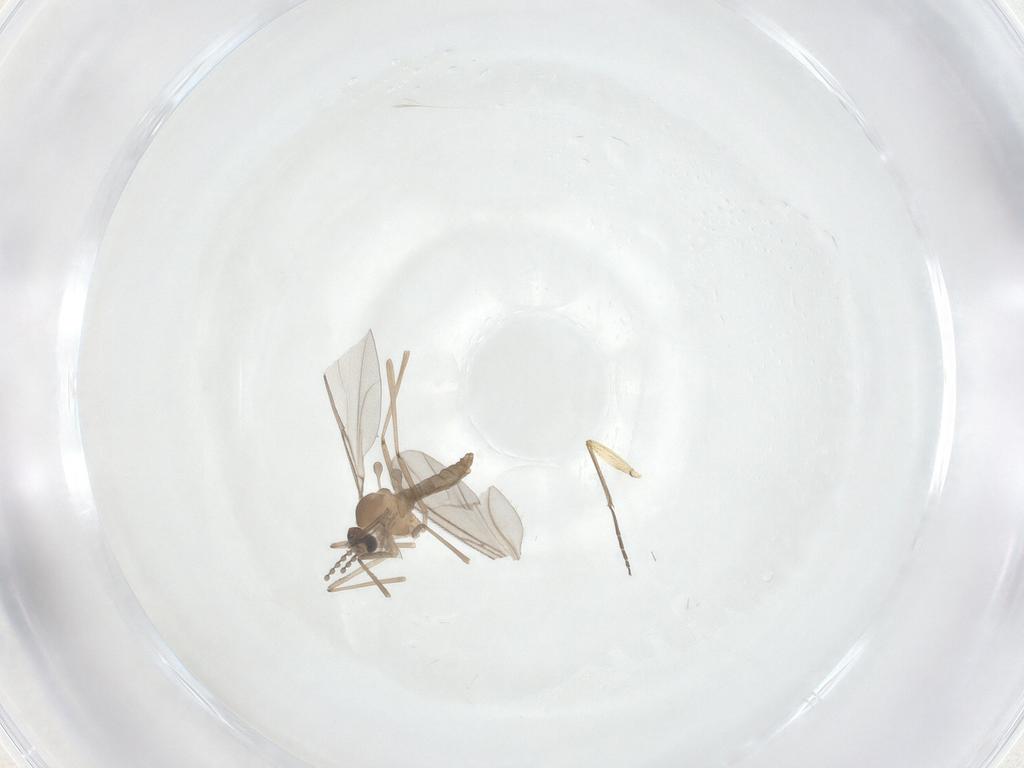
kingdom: Animalia
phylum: Arthropoda
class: Insecta
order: Diptera
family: Sciaridae
